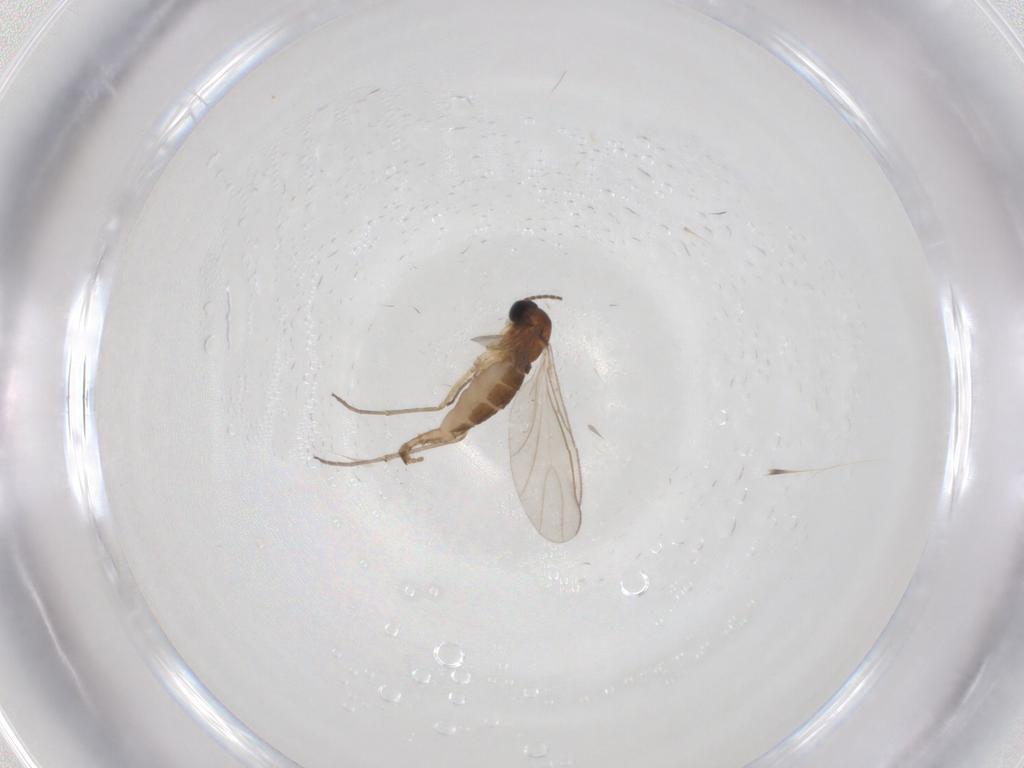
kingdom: Animalia
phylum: Arthropoda
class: Insecta
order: Diptera
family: Sciaridae
